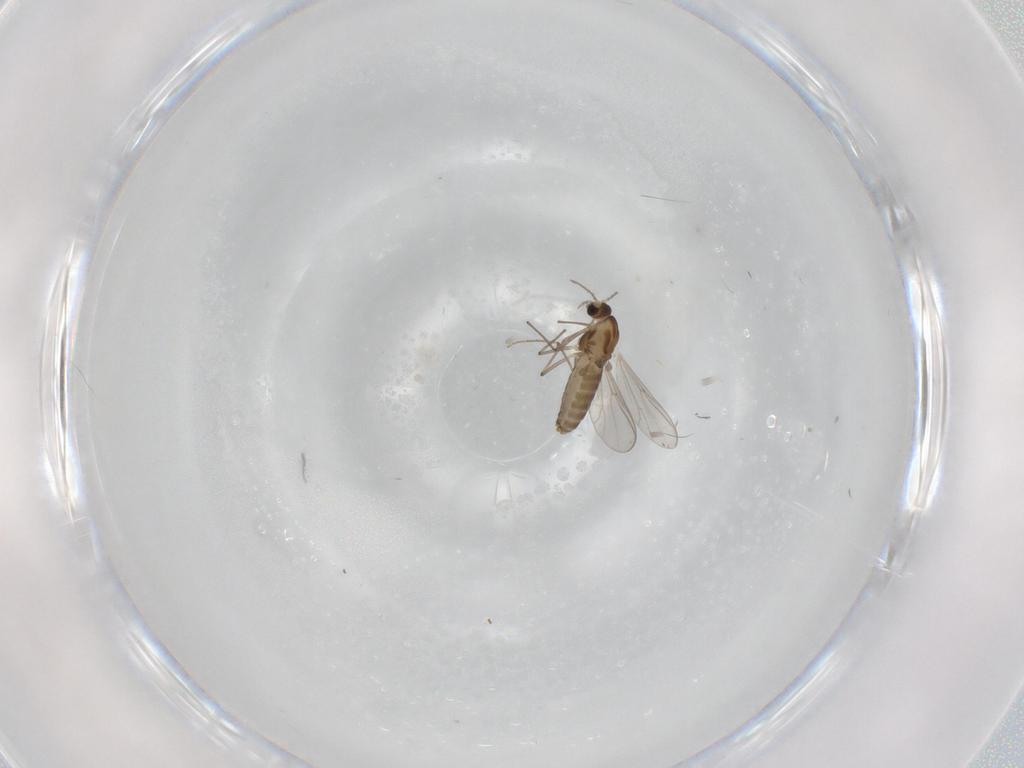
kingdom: Animalia
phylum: Arthropoda
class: Insecta
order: Diptera
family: Chironomidae
